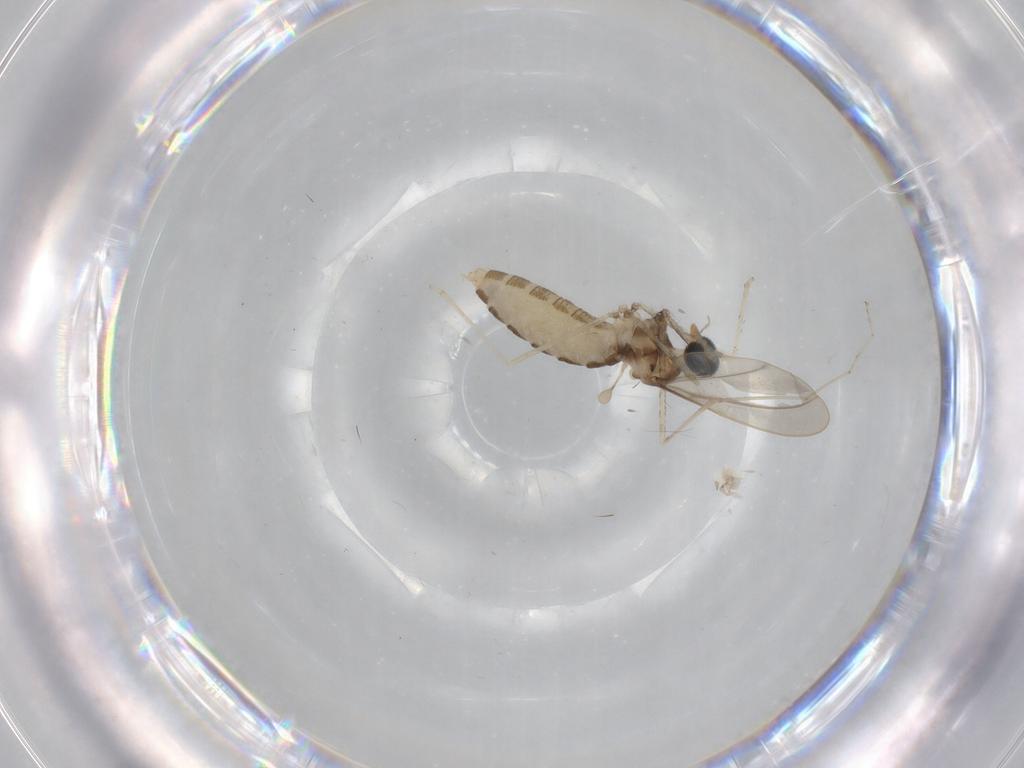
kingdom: Animalia
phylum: Arthropoda
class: Insecta
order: Diptera
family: Cecidomyiidae
